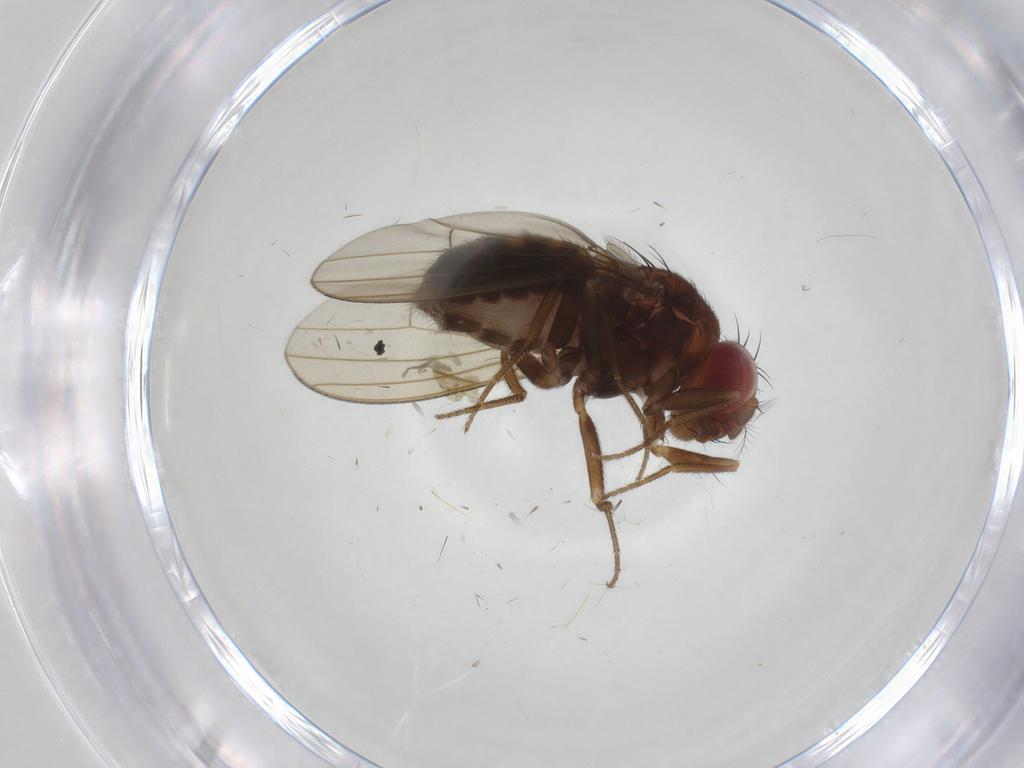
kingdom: Animalia
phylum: Arthropoda
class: Insecta
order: Diptera
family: Drosophilidae
